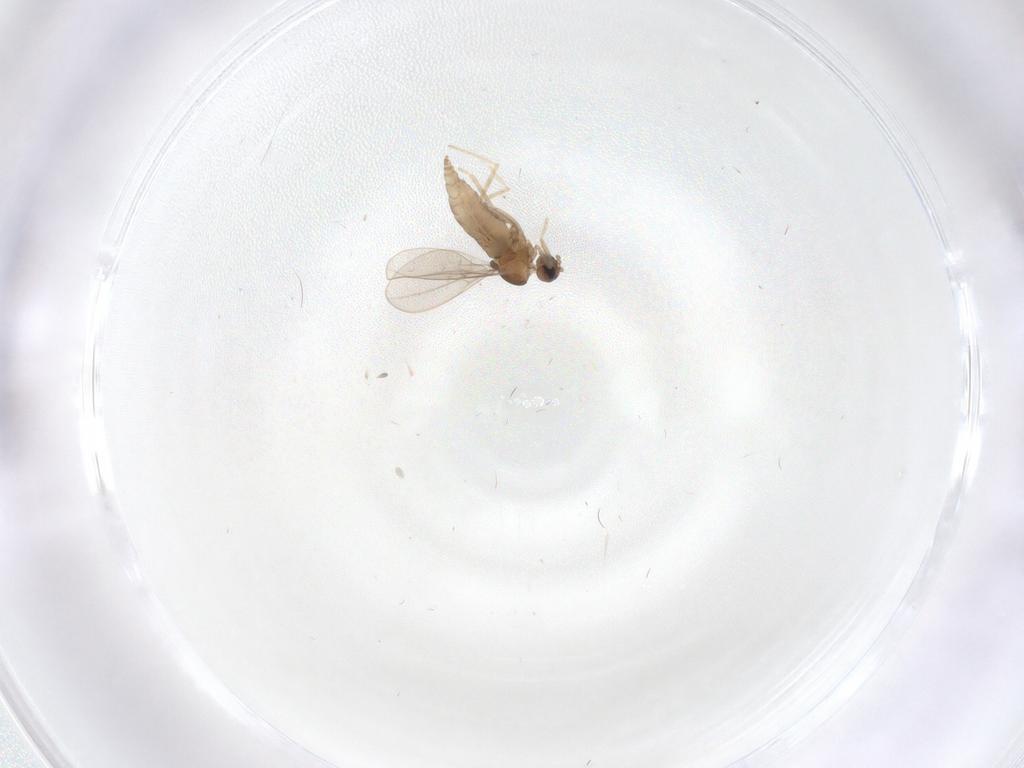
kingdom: Animalia
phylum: Arthropoda
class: Insecta
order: Diptera
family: Cecidomyiidae
